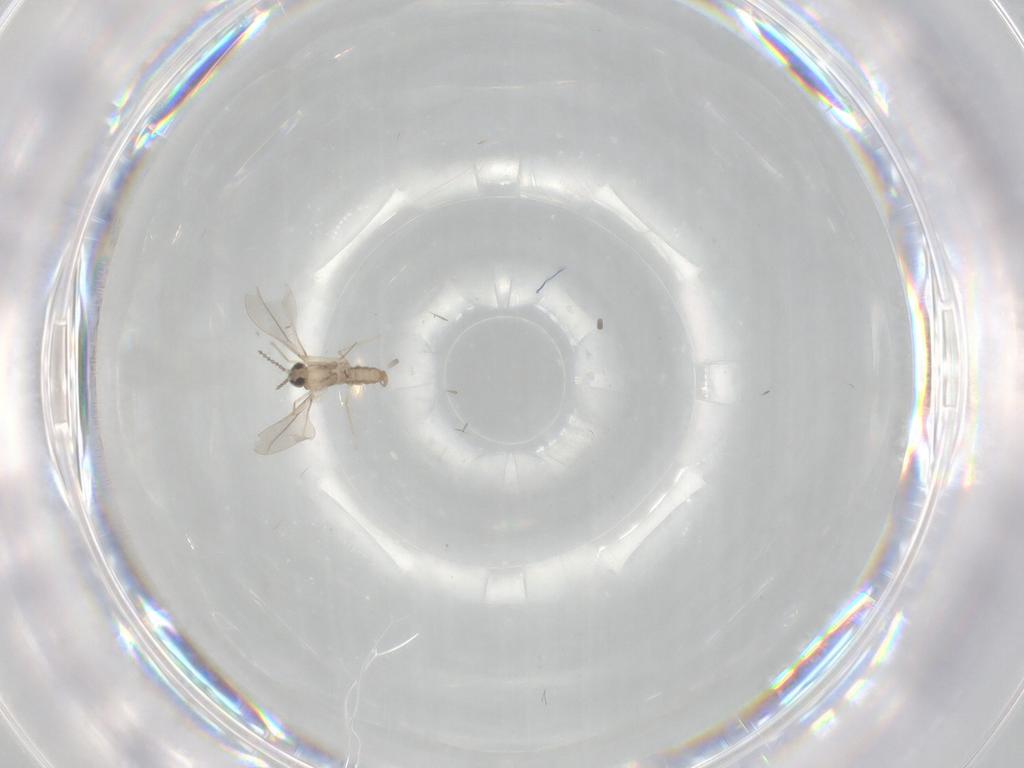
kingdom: Animalia
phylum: Arthropoda
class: Insecta
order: Diptera
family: Cecidomyiidae
